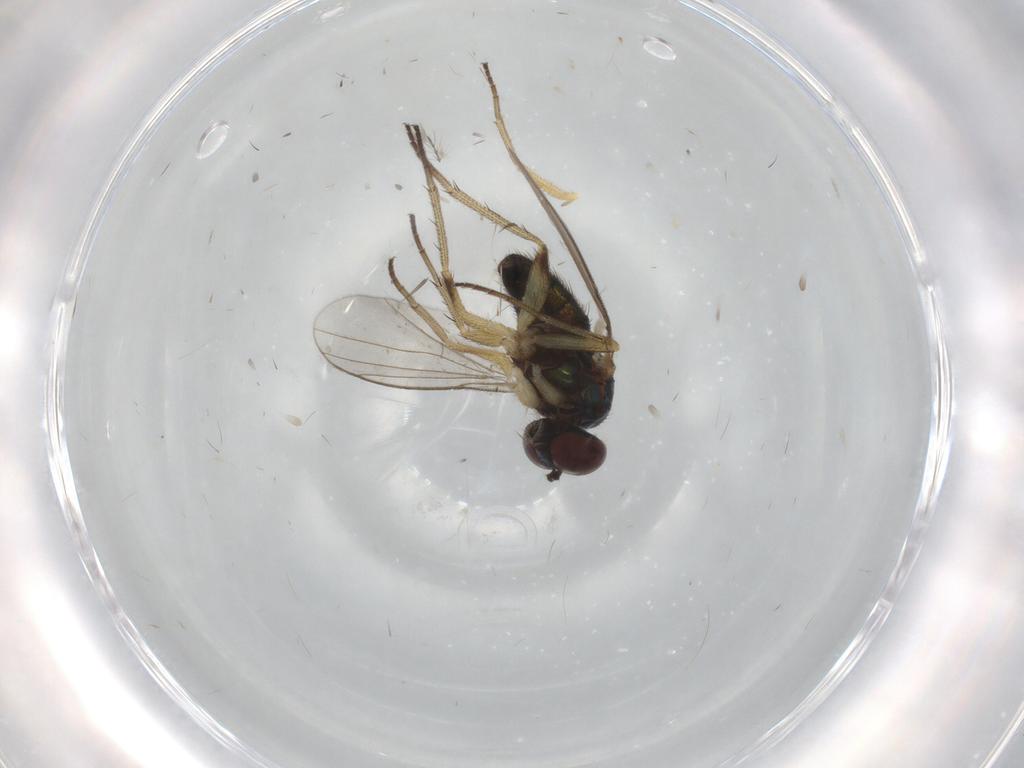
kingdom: Animalia
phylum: Arthropoda
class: Insecta
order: Diptera
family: Dolichopodidae
